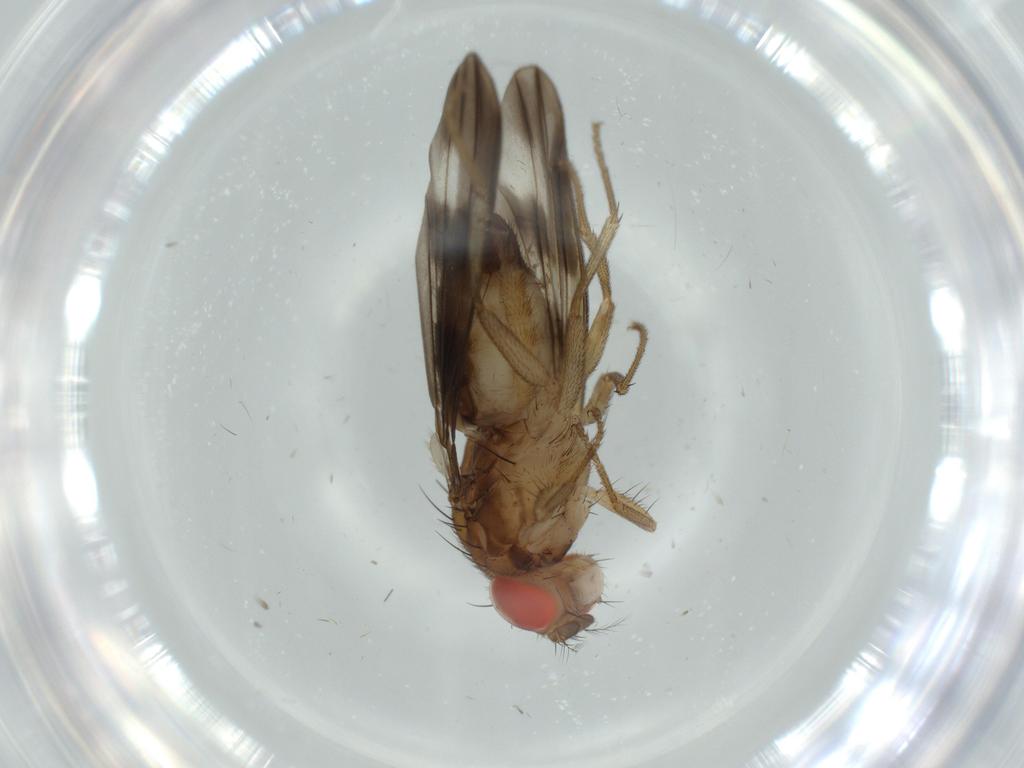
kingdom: Animalia
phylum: Arthropoda
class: Insecta
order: Diptera
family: Drosophilidae
